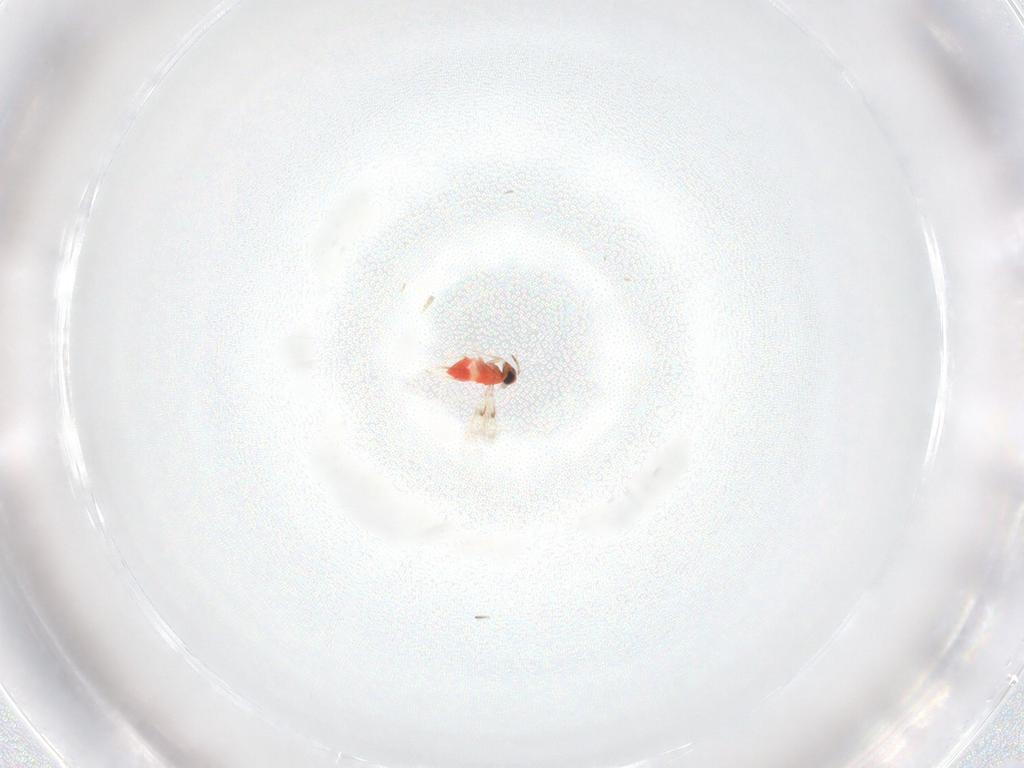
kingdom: Animalia
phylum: Arthropoda
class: Insecta
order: Hymenoptera
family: Trichogrammatidae
